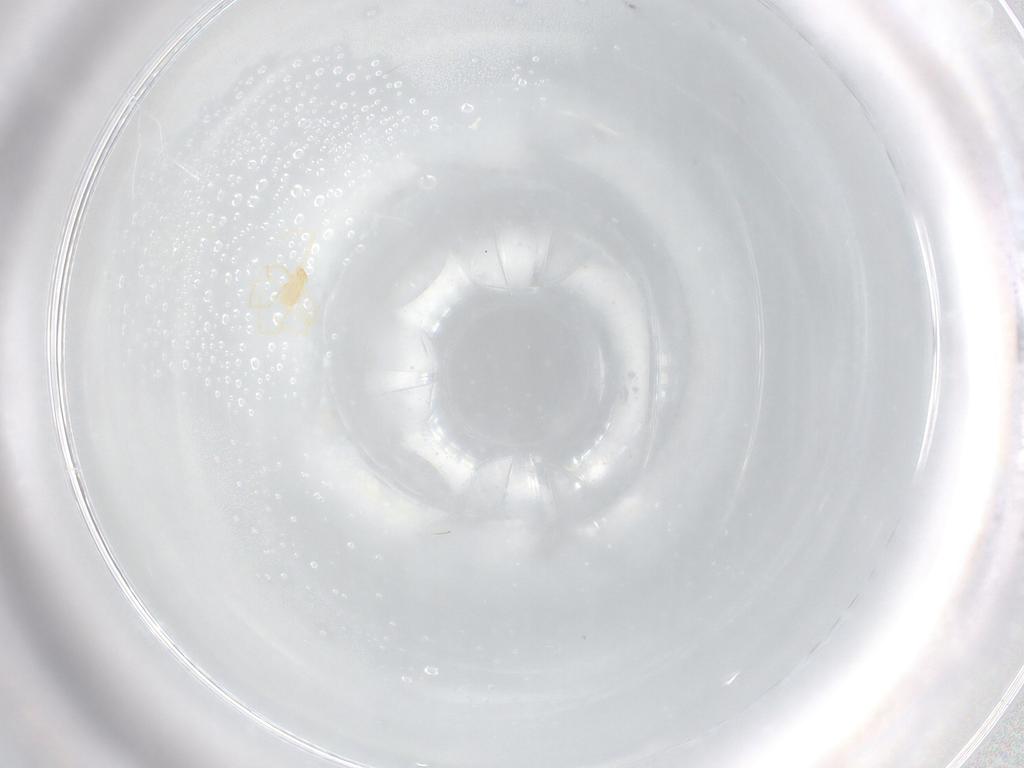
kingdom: Animalia
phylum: Arthropoda
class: Arachnida
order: Trombidiformes
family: Erythraeidae
